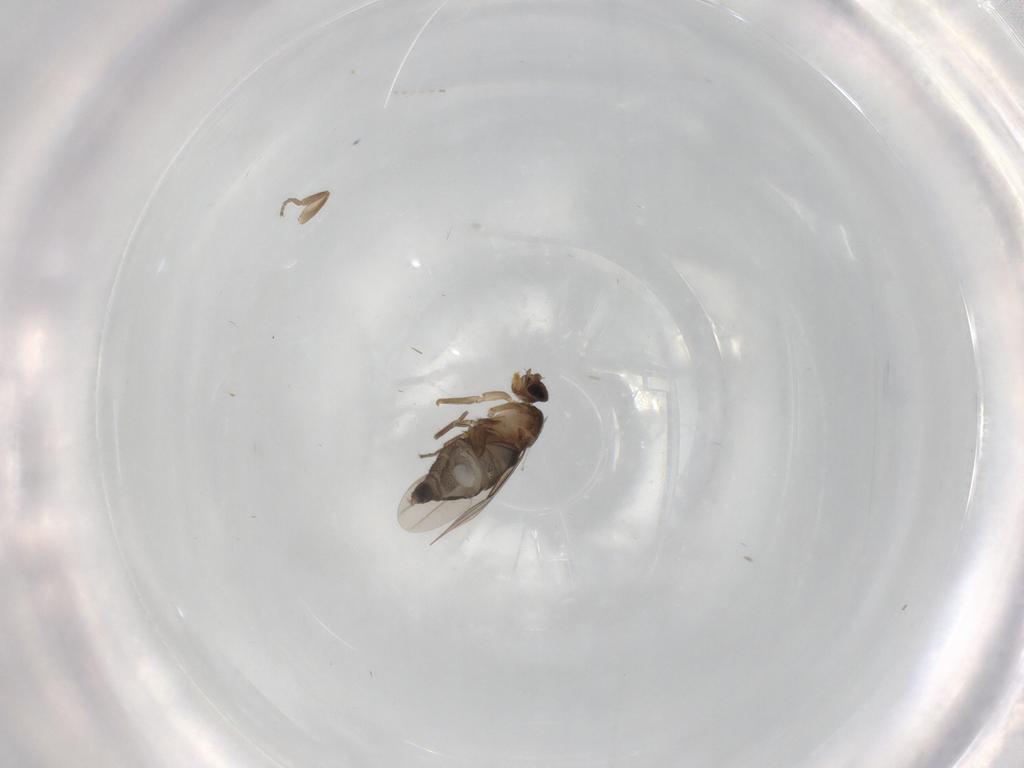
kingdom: Animalia
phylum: Arthropoda
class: Insecta
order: Diptera
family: Phoridae
